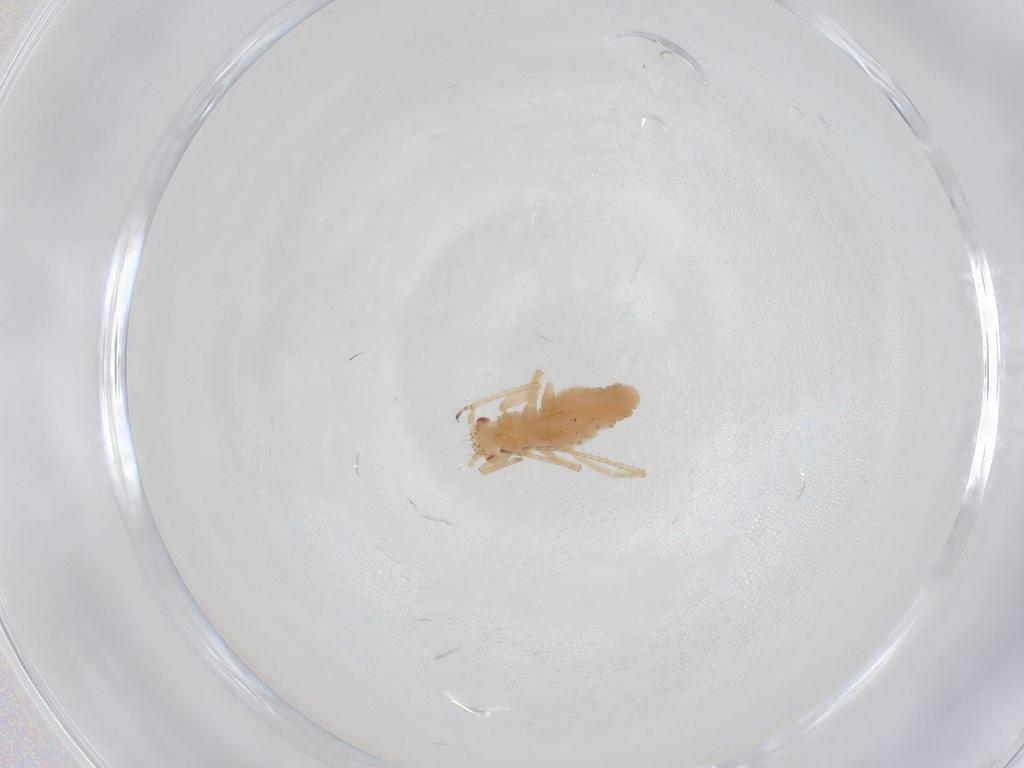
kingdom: Animalia
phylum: Arthropoda
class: Insecta
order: Hemiptera
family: Aphididae
